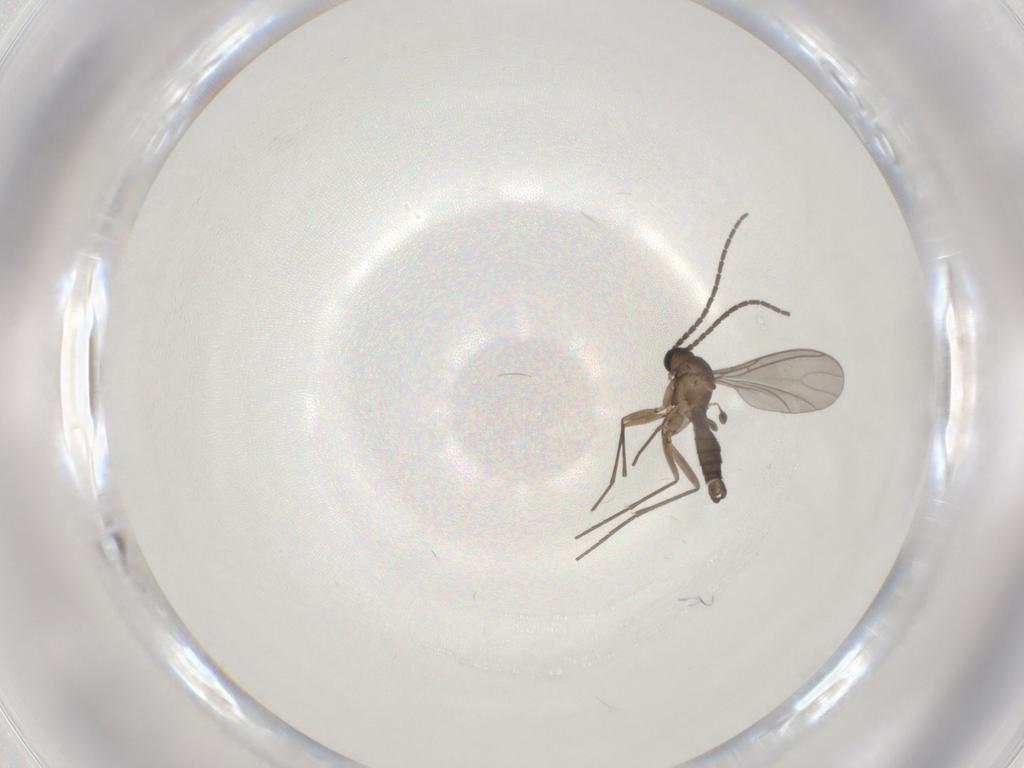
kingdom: Animalia
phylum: Arthropoda
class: Insecta
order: Diptera
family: Sciaridae
